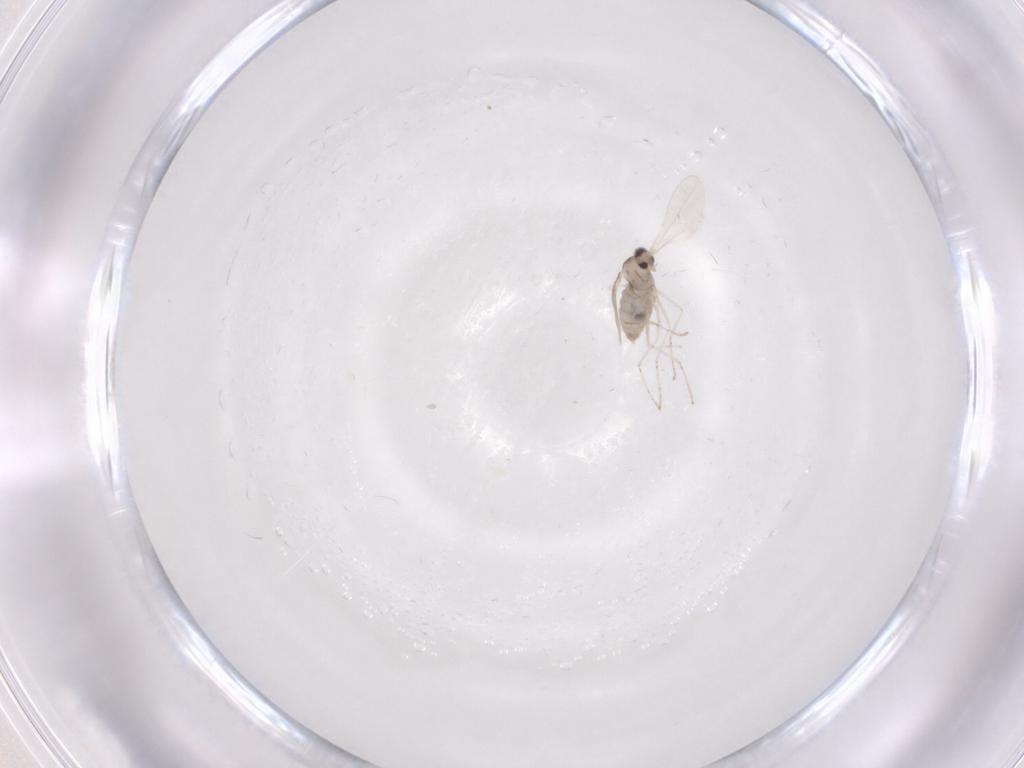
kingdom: Animalia
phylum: Arthropoda
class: Insecta
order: Diptera
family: Cecidomyiidae
